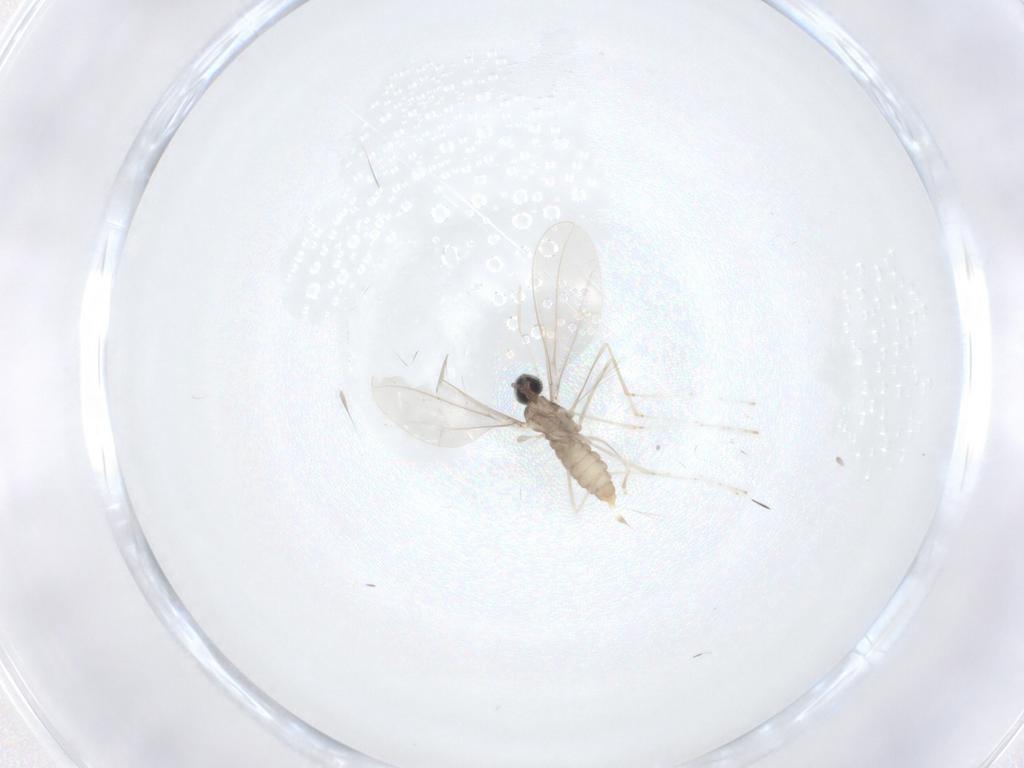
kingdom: Animalia
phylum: Arthropoda
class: Insecta
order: Diptera
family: Cecidomyiidae
